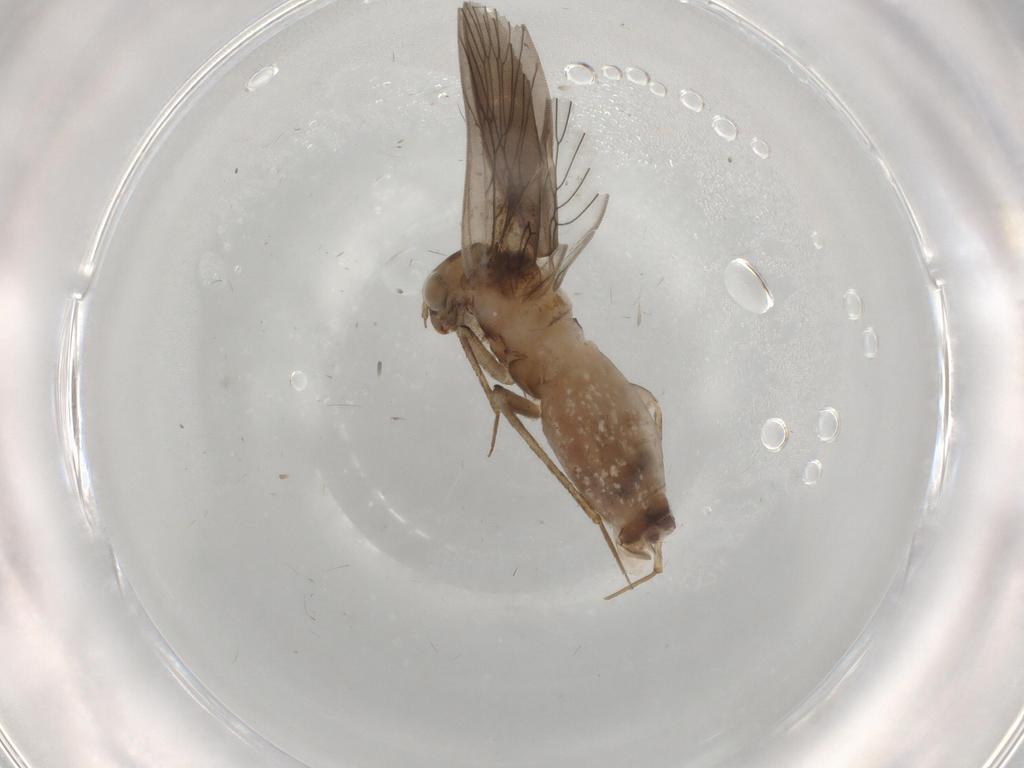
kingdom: Animalia
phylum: Arthropoda
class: Insecta
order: Psocodea
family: Lepidopsocidae
